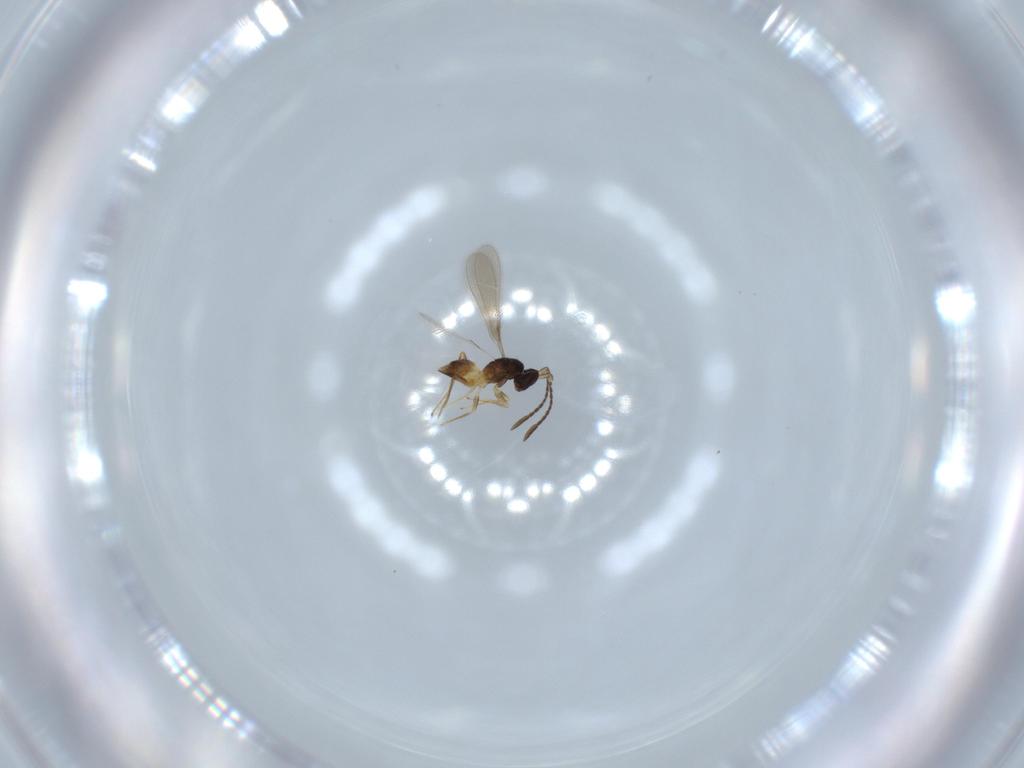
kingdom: Animalia
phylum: Arthropoda
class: Insecta
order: Hymenoptera
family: Mymaridae
